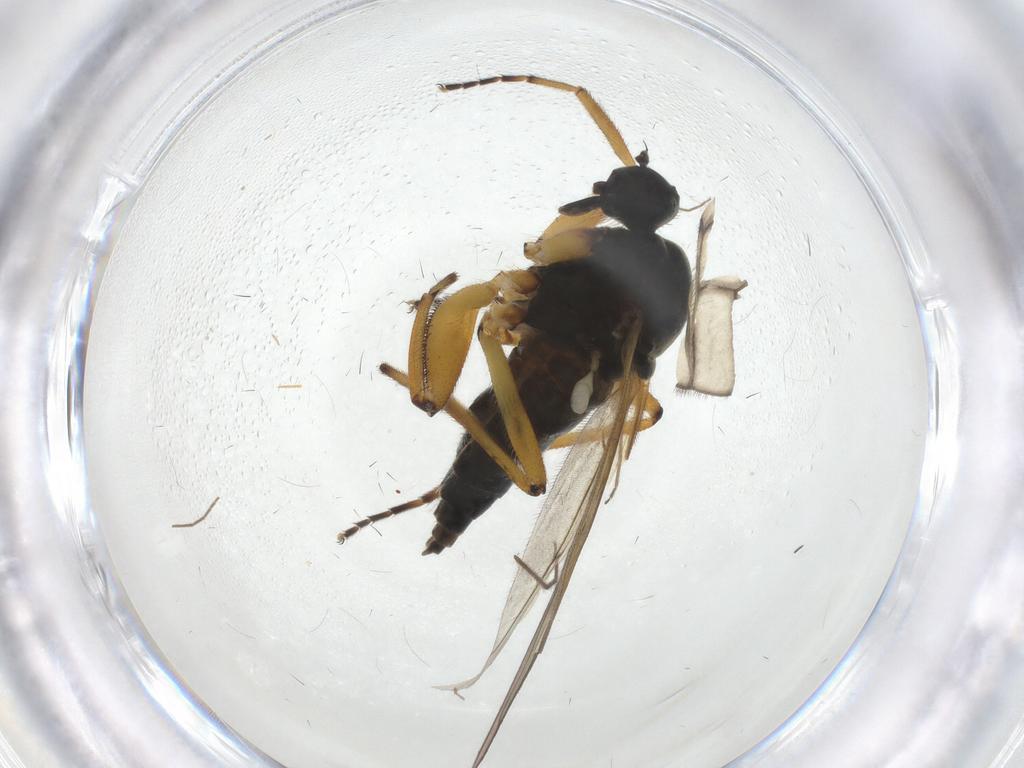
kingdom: Animalia
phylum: Arthropoda
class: Insecta
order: Diptera
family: Hybotidae
